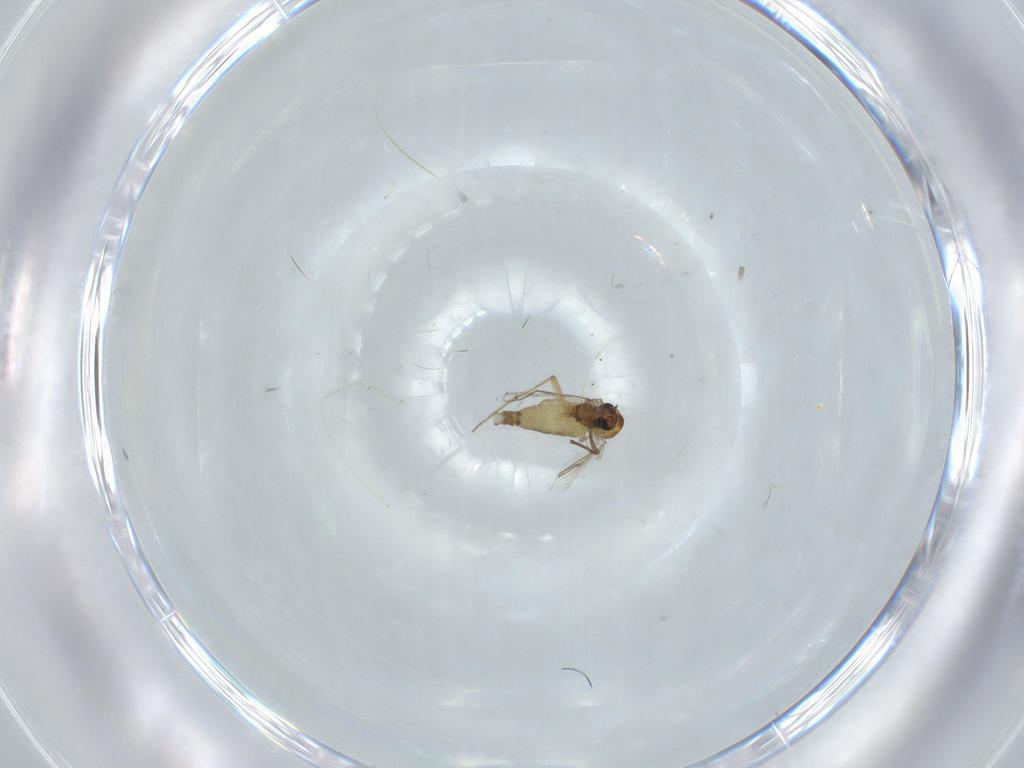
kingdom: Animalia
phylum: Arthropoda
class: Insecta
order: Diptera
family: Chironomidae
